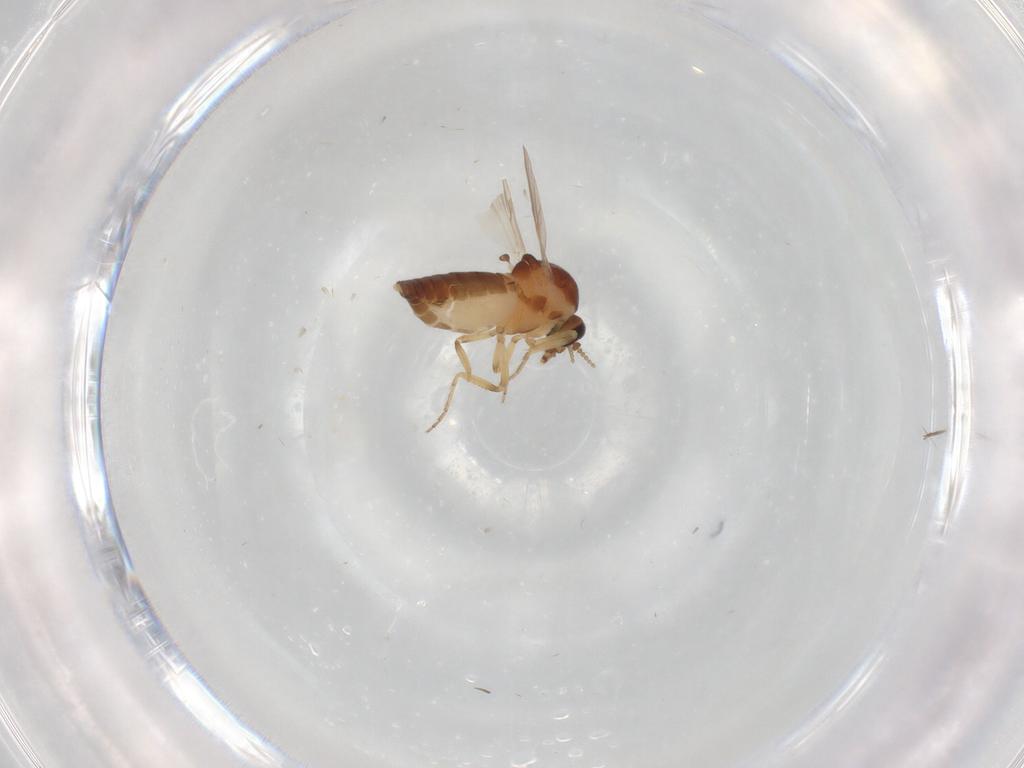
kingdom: Animalia
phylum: Arthropoda
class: Insecta
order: Diptera
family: Ceratopogonidae
